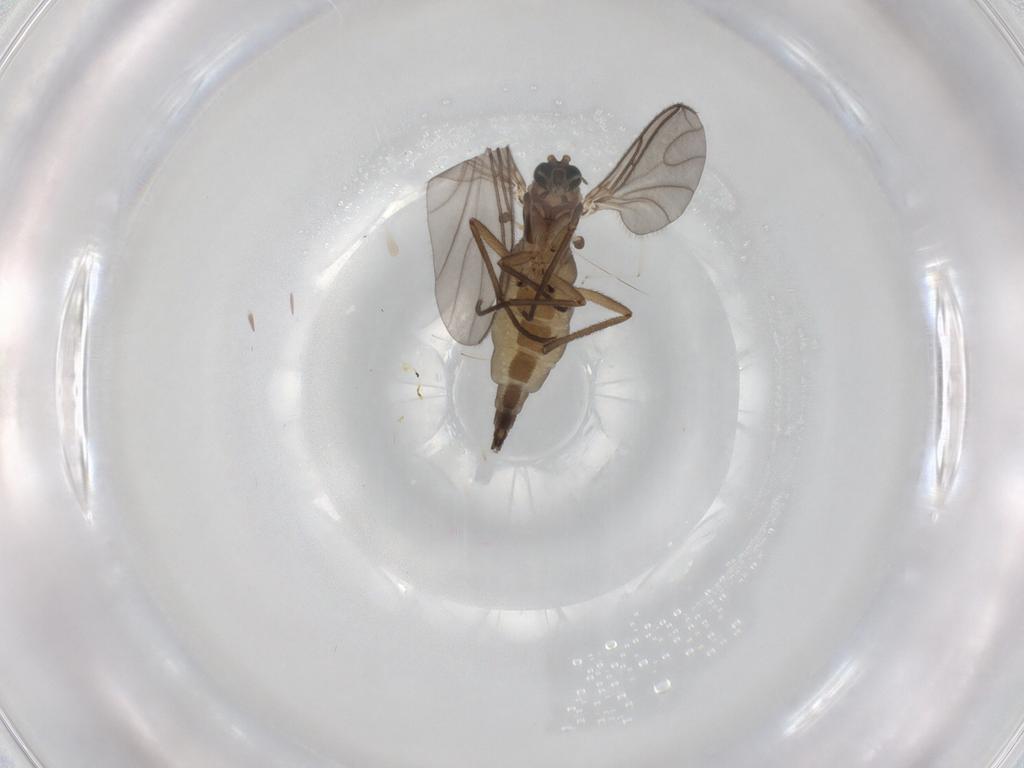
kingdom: Animalia
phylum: Arthropoda
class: Insecta
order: Diptera
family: Sciaridae
